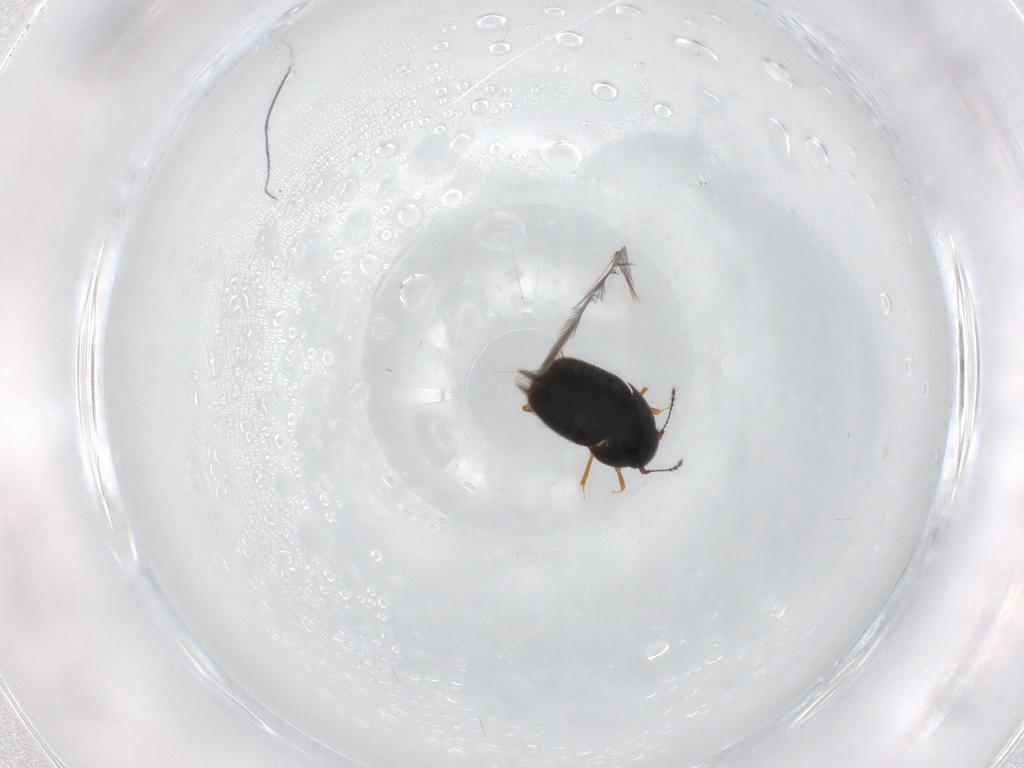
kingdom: Animalia
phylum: Arthropoda
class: Insecta
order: Coleoptera
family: Ptiliidae
